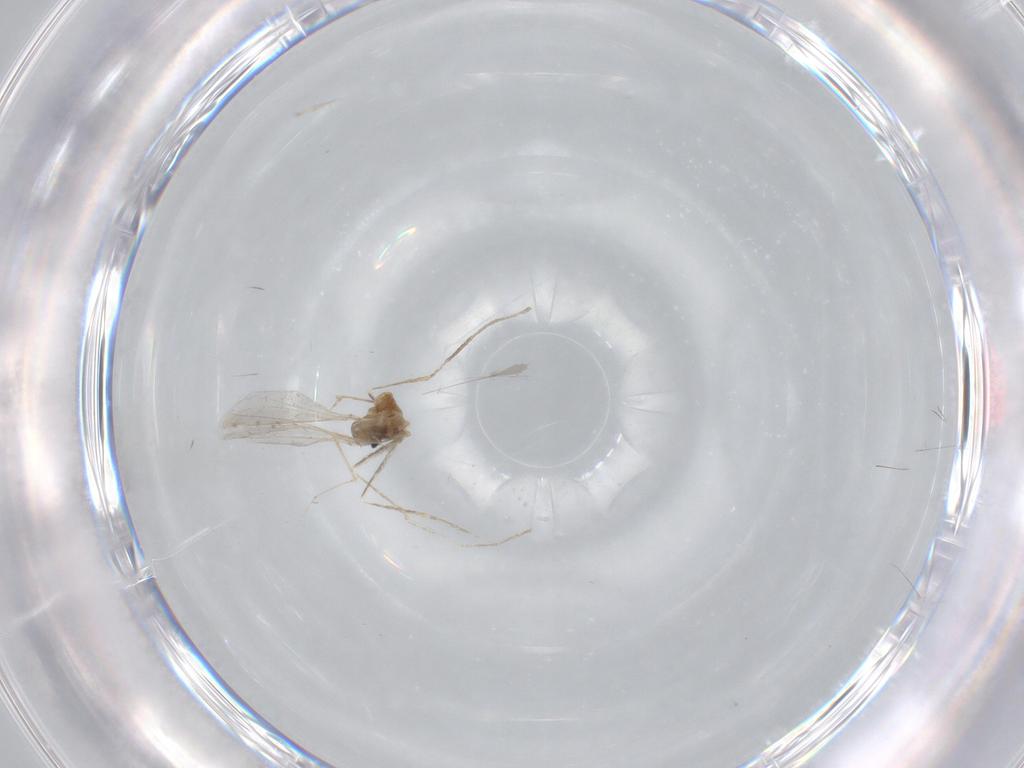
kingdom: Animalia
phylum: Arthropoda
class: Insecta
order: Diptera
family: Cecidomyiidae
